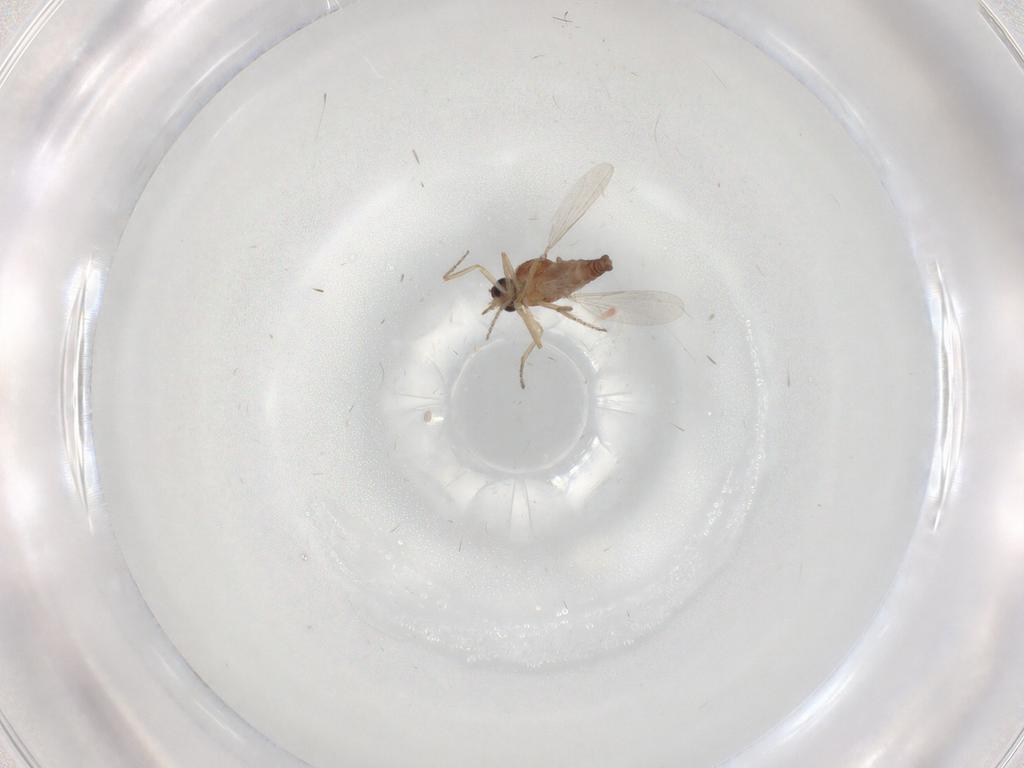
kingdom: Animalia
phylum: Arthropoda
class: Insecta
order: Diptera
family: Ceratopogonidae
